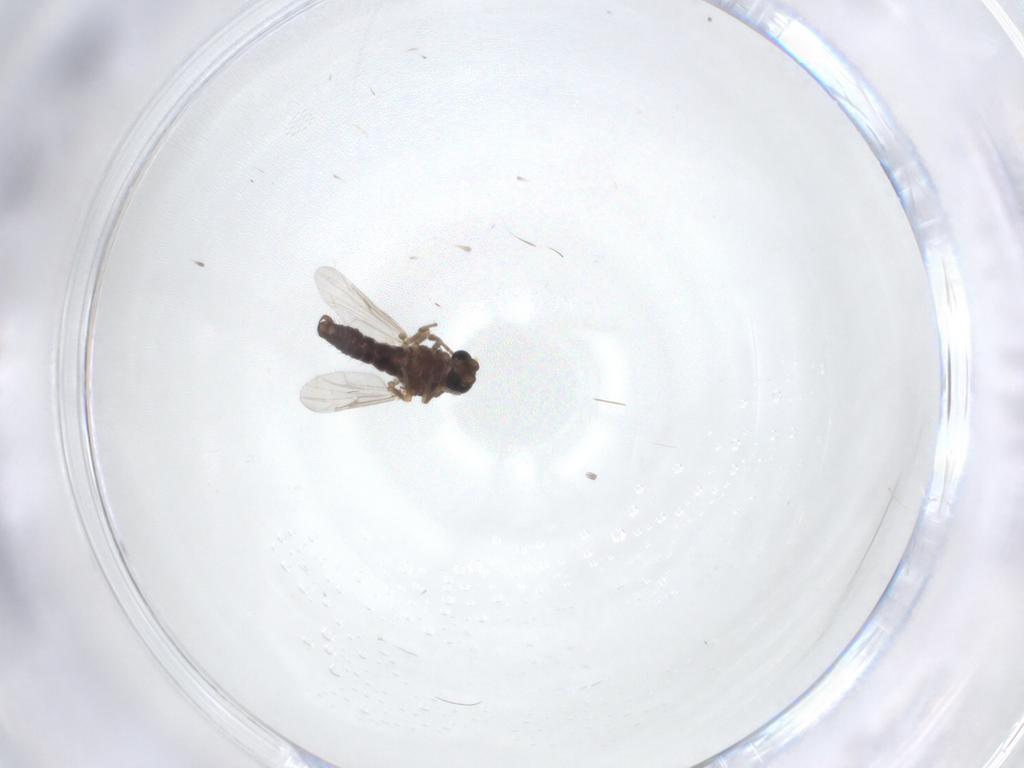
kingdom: Animalia
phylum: Arthropoda
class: Insecta
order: Diptera
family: Ceratopogonidae
